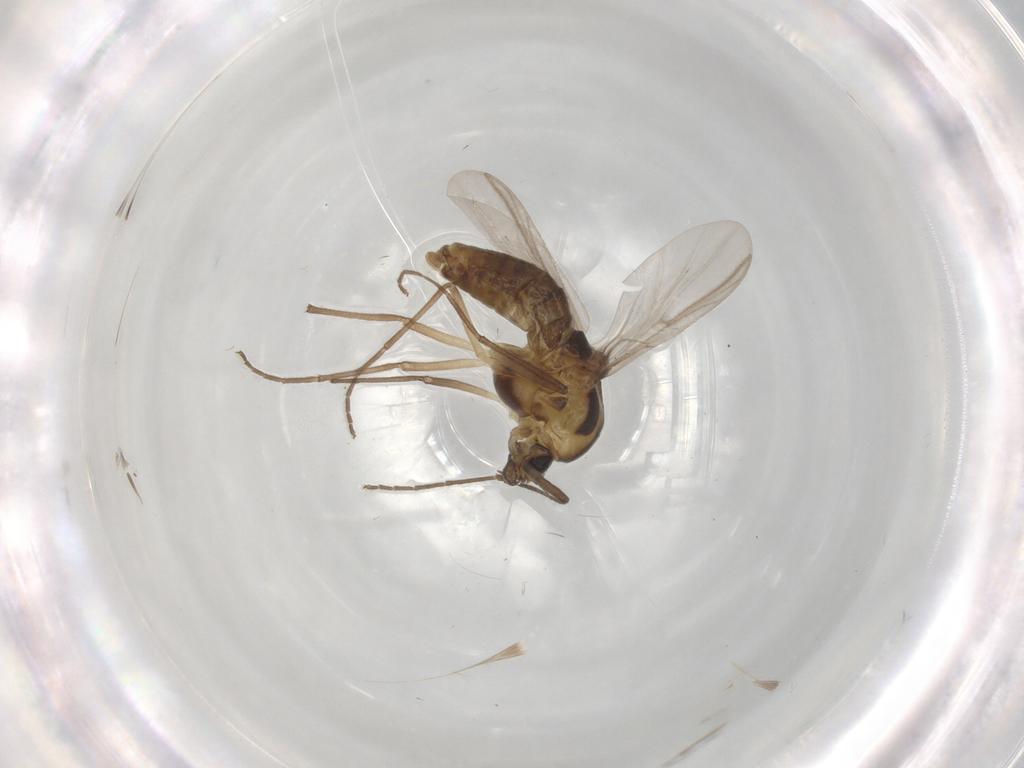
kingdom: Animalia
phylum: Arthropoda
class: Insecta
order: Diptera
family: Chironomidae
